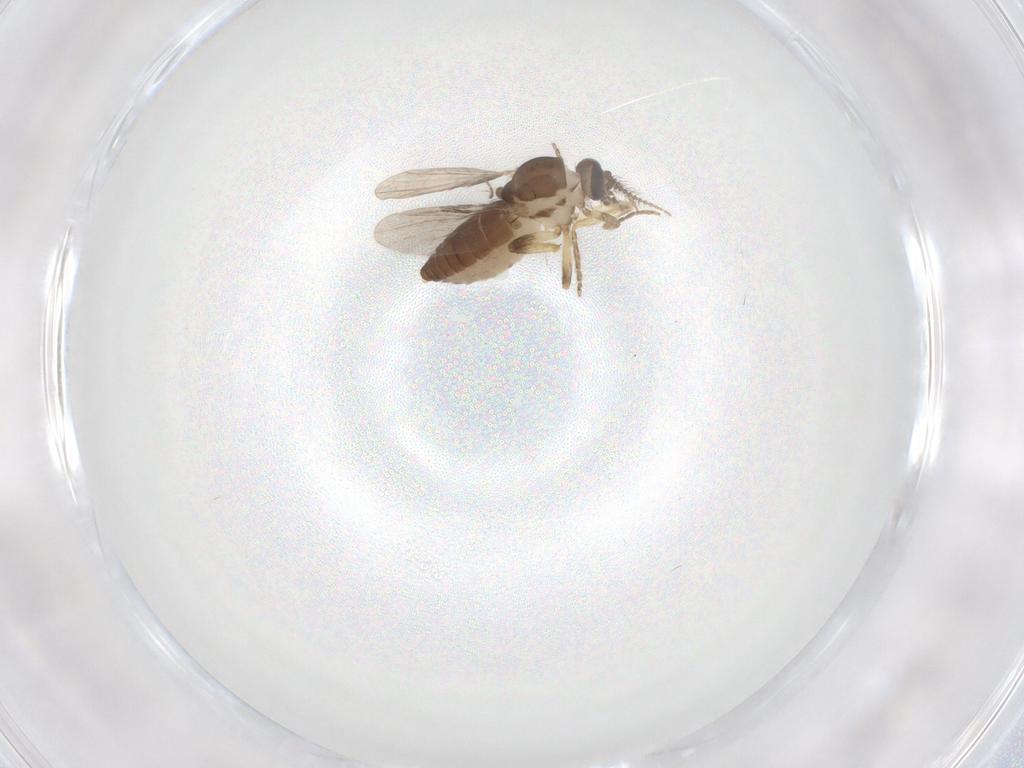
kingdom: Animalia
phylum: Arthropoda
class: Insecta
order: Diptera
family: Ceratopogonidae
